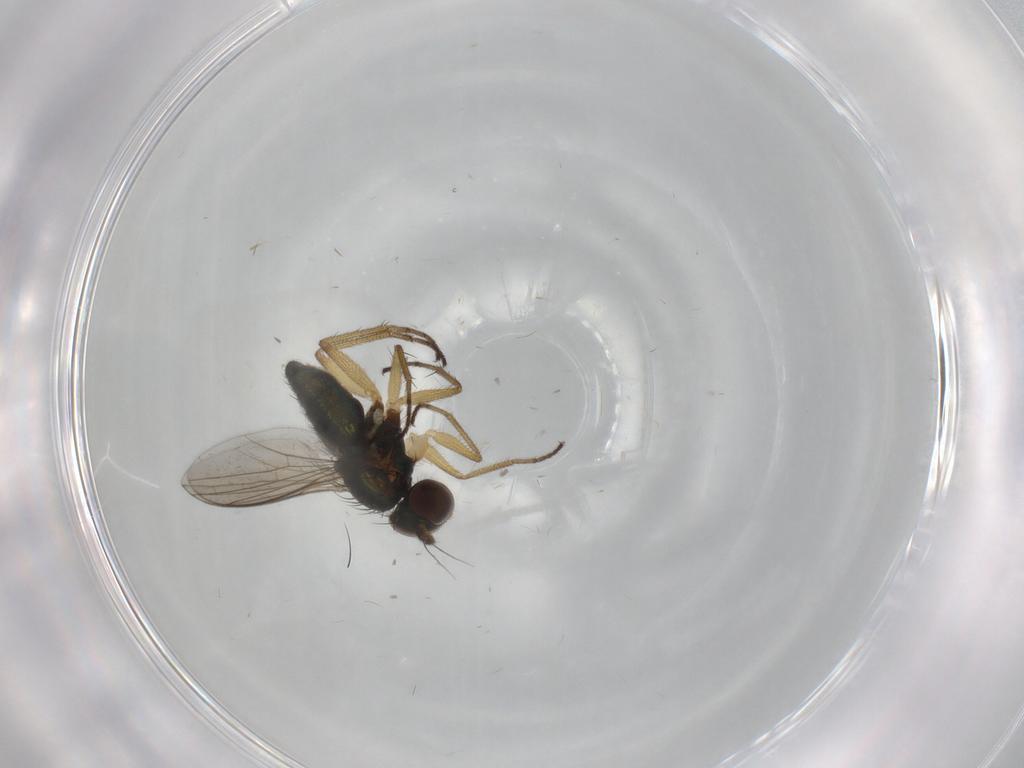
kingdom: Animalia
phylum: Arthropoda
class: Insecta
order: Diptera
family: Dolichopodidae
